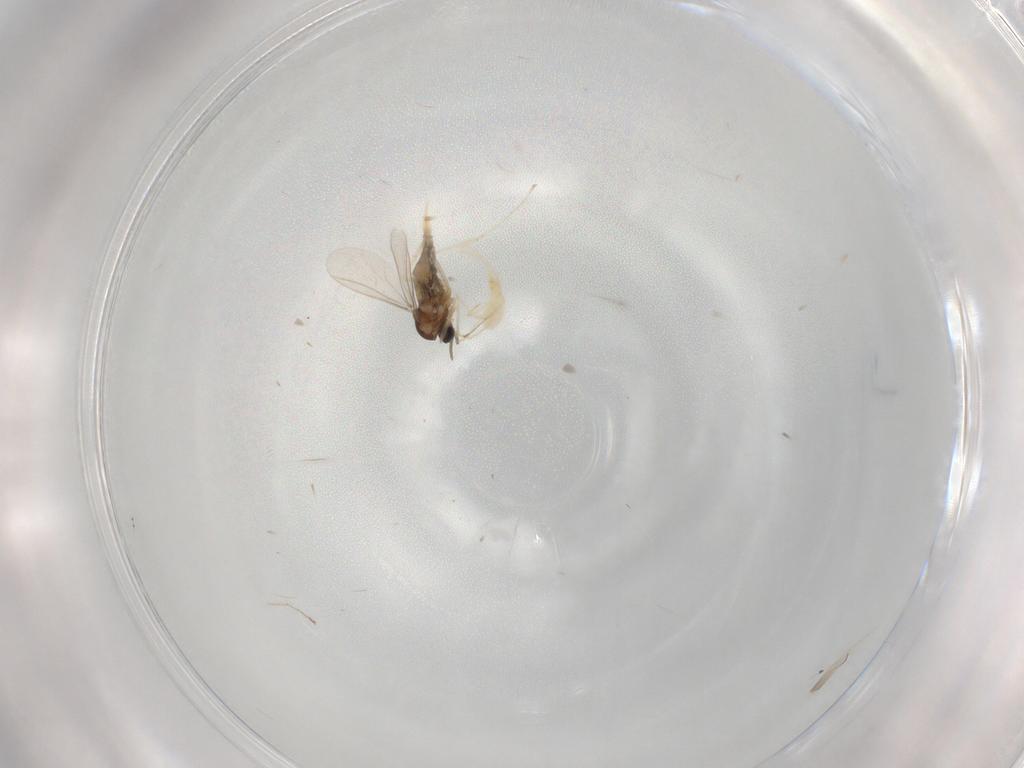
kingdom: Animalia
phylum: Arthropoda
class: Insecta
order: Diptera
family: Cecidomyiidae
